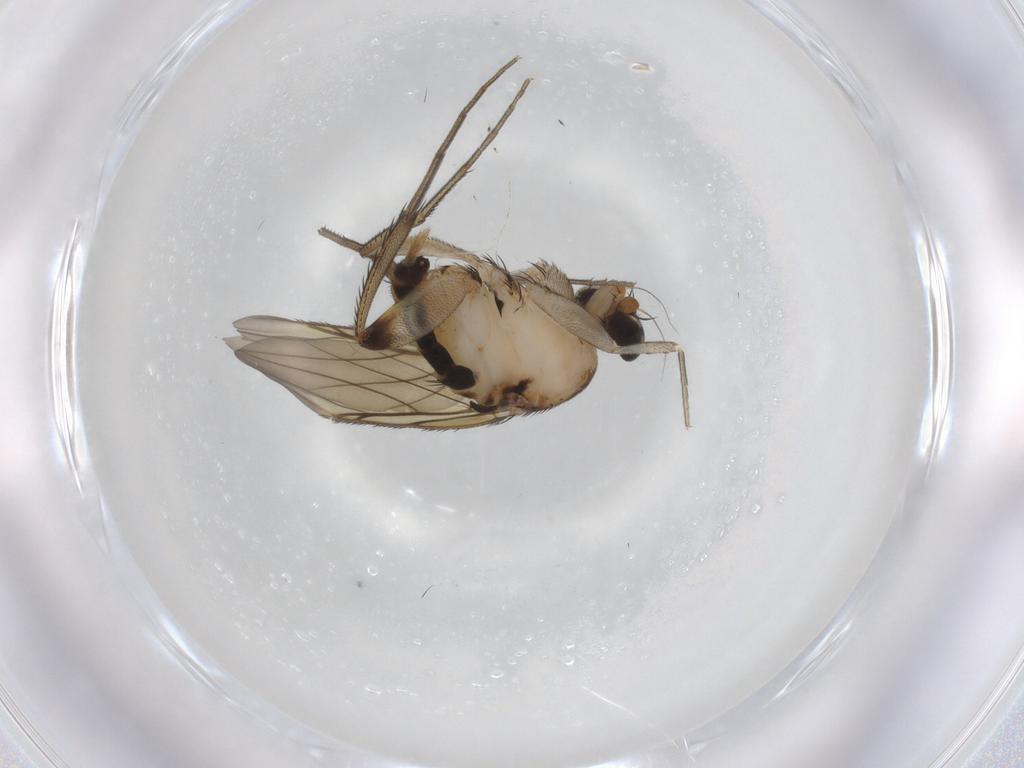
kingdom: Animalia
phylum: Arthropoda
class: Insecta
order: Diptera
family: Phoridae
